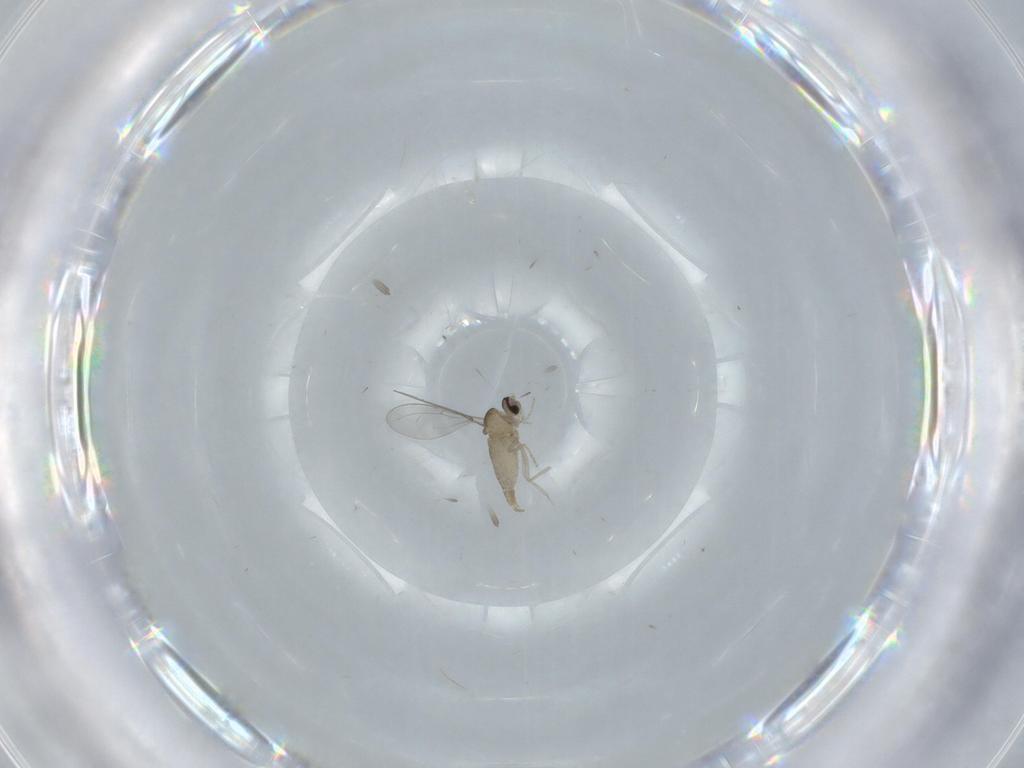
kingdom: Animalia
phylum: Arthropoda
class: Insecta
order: Diptera
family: Cecidomyiidae
